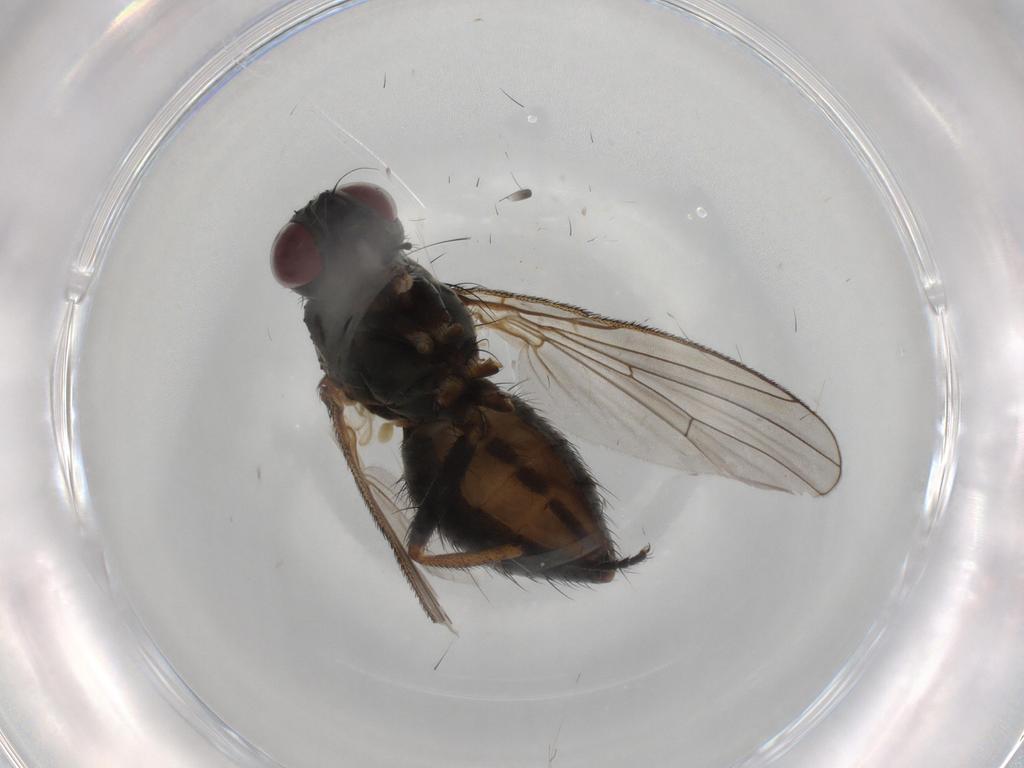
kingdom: Animalia
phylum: Arthropoda
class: Insecta
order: Diptera
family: Muscidae
